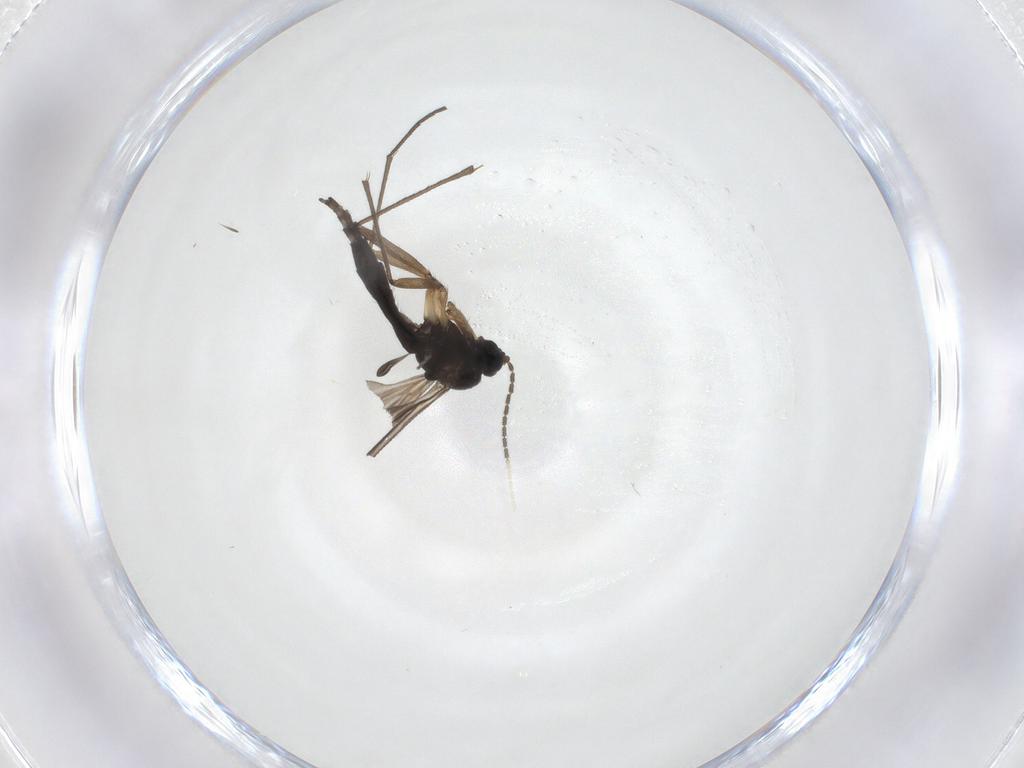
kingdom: Animalia
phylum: Arthropoda
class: Insecta
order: Diptera
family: Sciaridae
